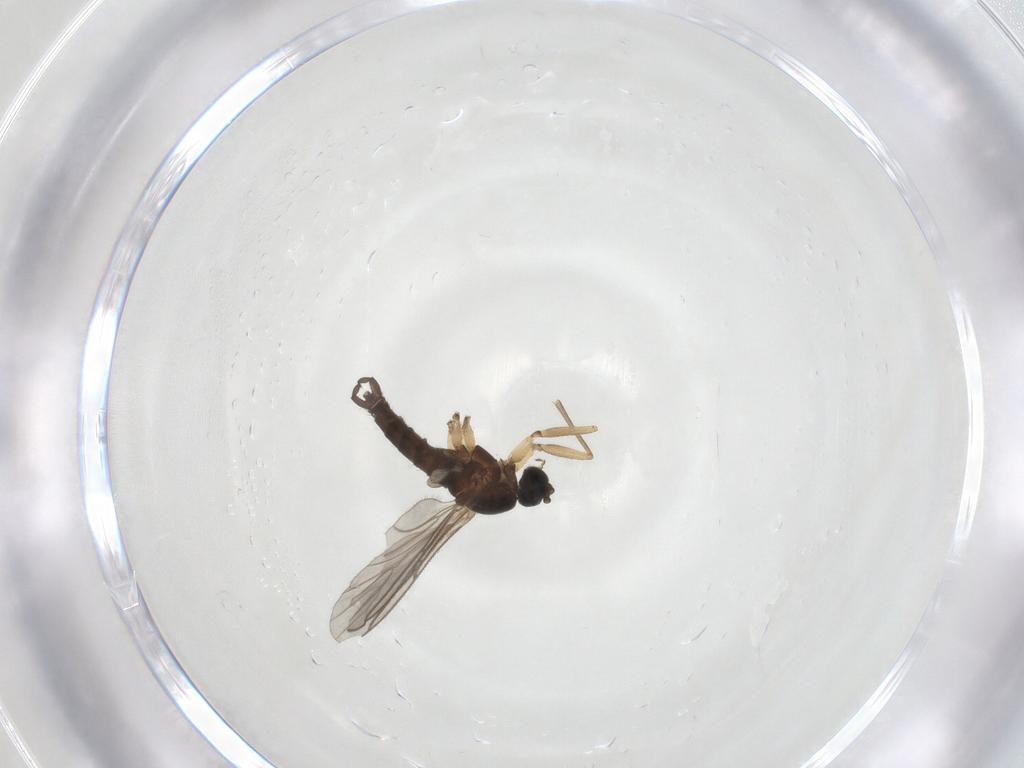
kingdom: Animalia
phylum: Arthropoda
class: Insecta
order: Diptera
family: Sciaridae
